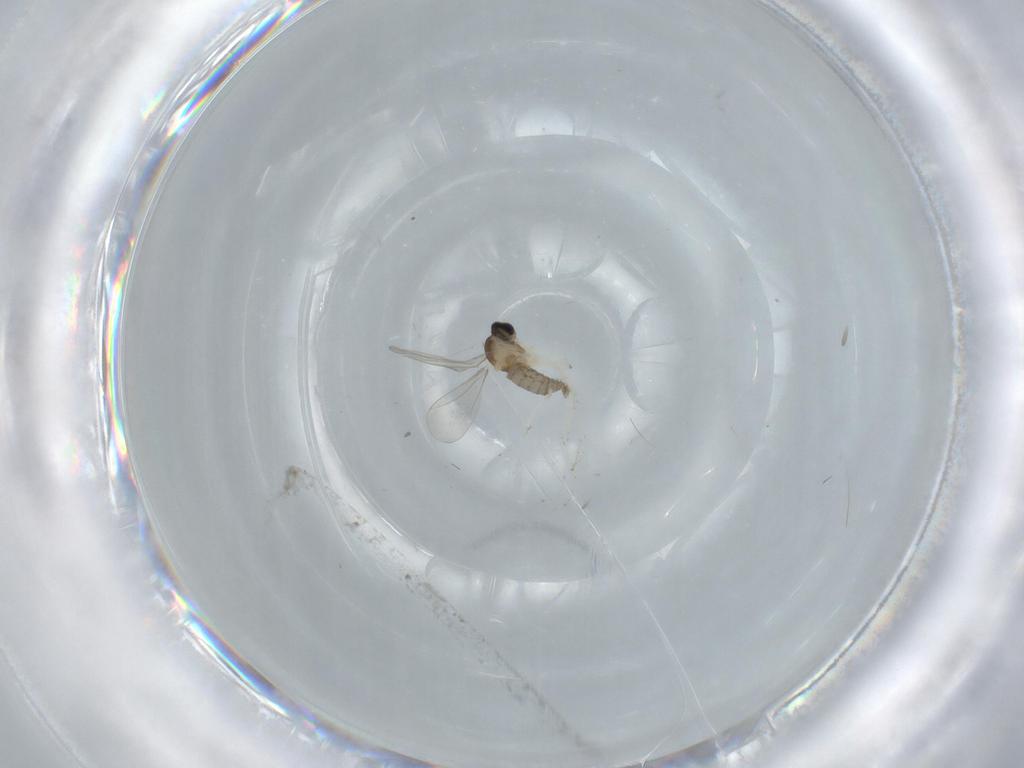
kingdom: Animalia
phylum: Arthropoda
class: Insecta
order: Diptera
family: Cecidomyiidae
